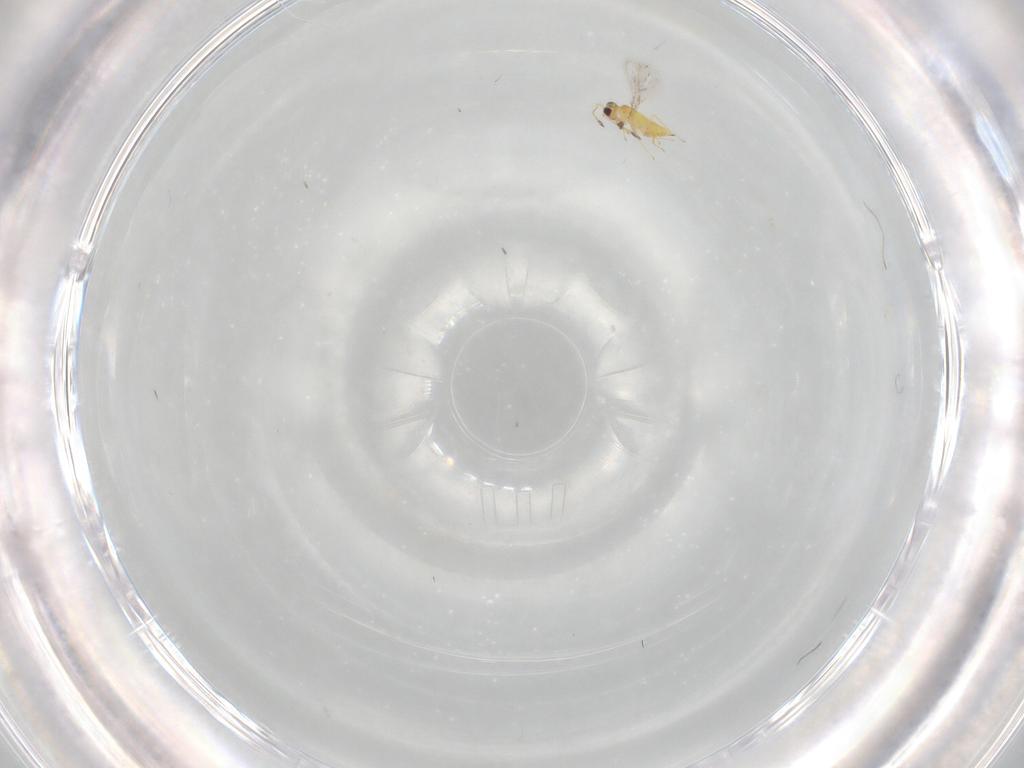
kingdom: Animalia
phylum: Arthropoda
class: Insecta
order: Hymenoptera
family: Mymaridae
